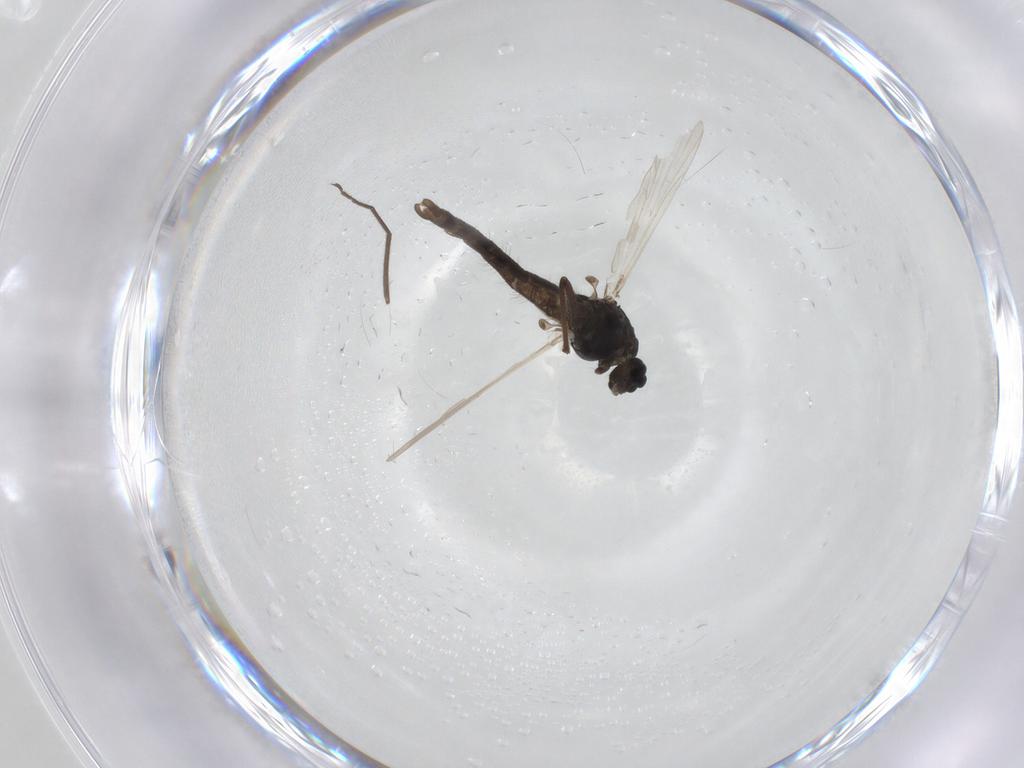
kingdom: Animalia
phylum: Arthropoda
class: Insecta
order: Diptera
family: Chironomidae
